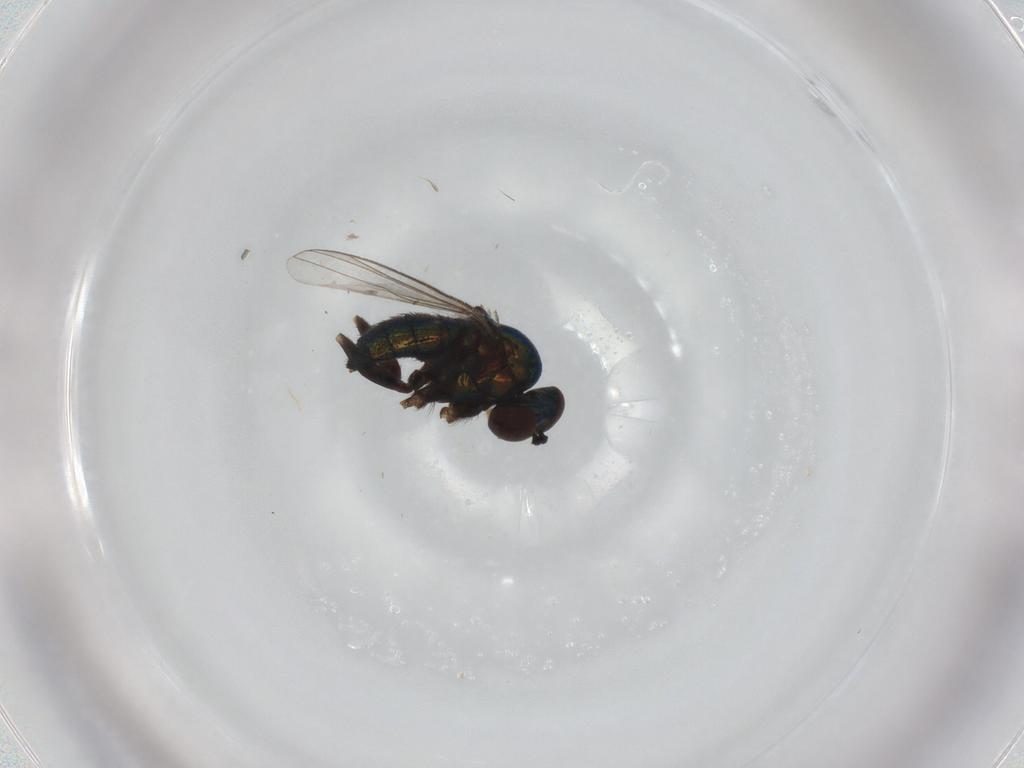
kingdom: Animalia
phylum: Arthropoda
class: Insecta
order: Diptera
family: Dolichopodidae
